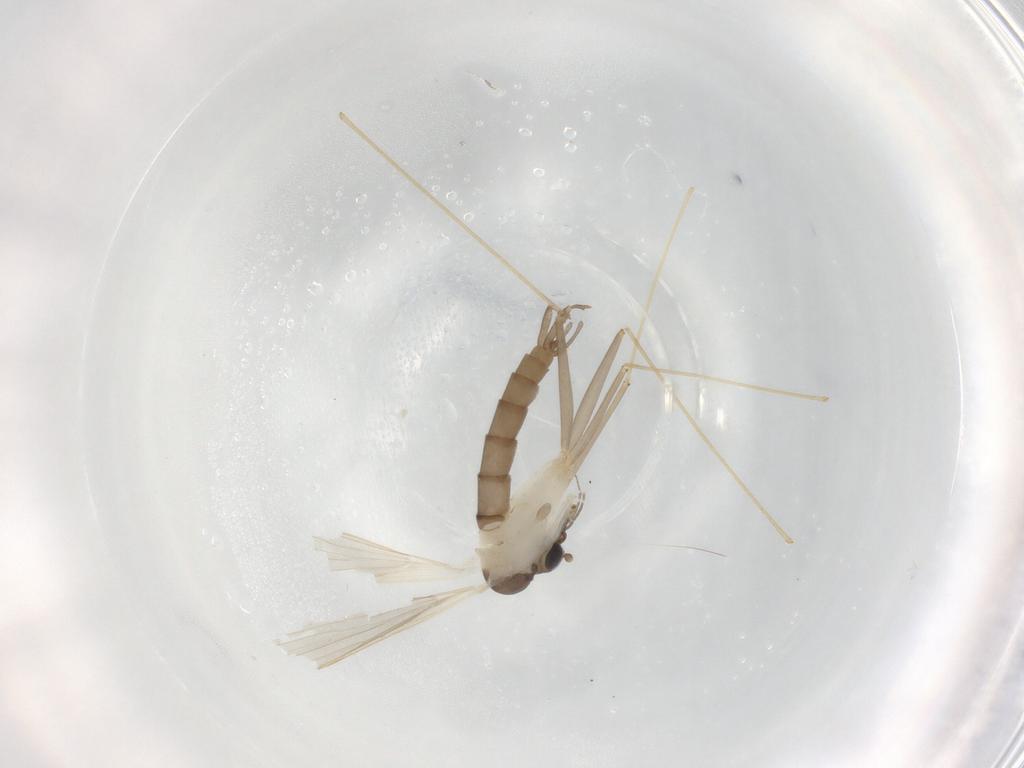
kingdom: Animalia
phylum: Arthropoda
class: Insecta
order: Diptera
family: Psychodidae
